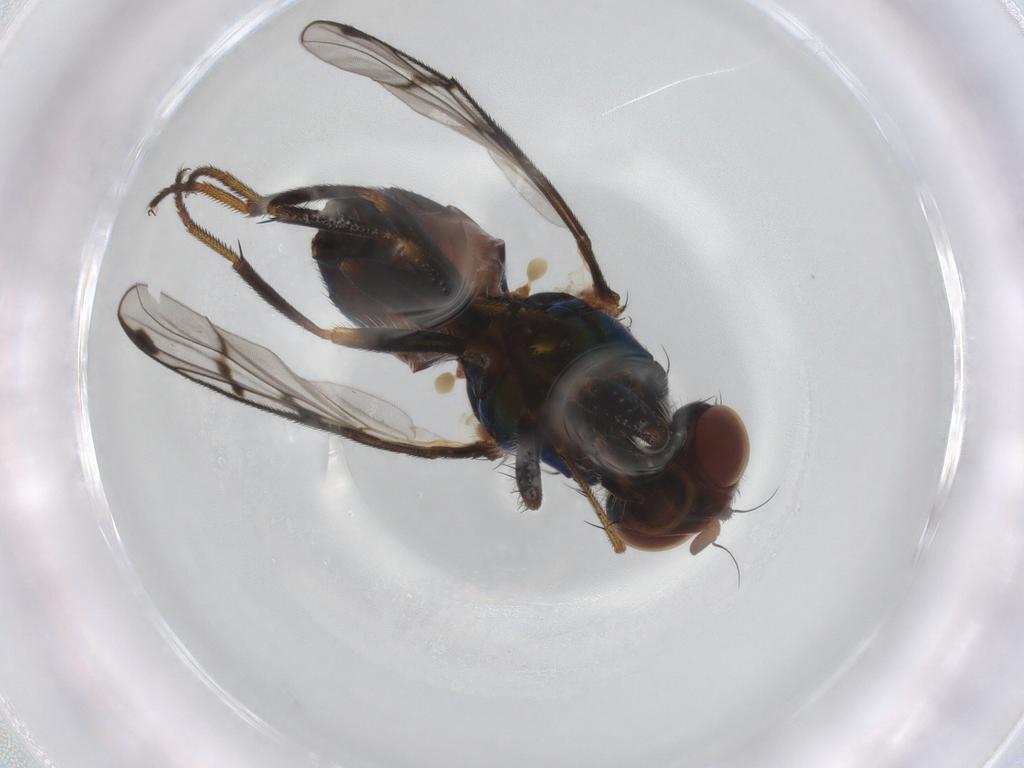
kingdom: Animalia
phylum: Arthropoda
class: Insecta
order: Diptera
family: Platystomatidae
